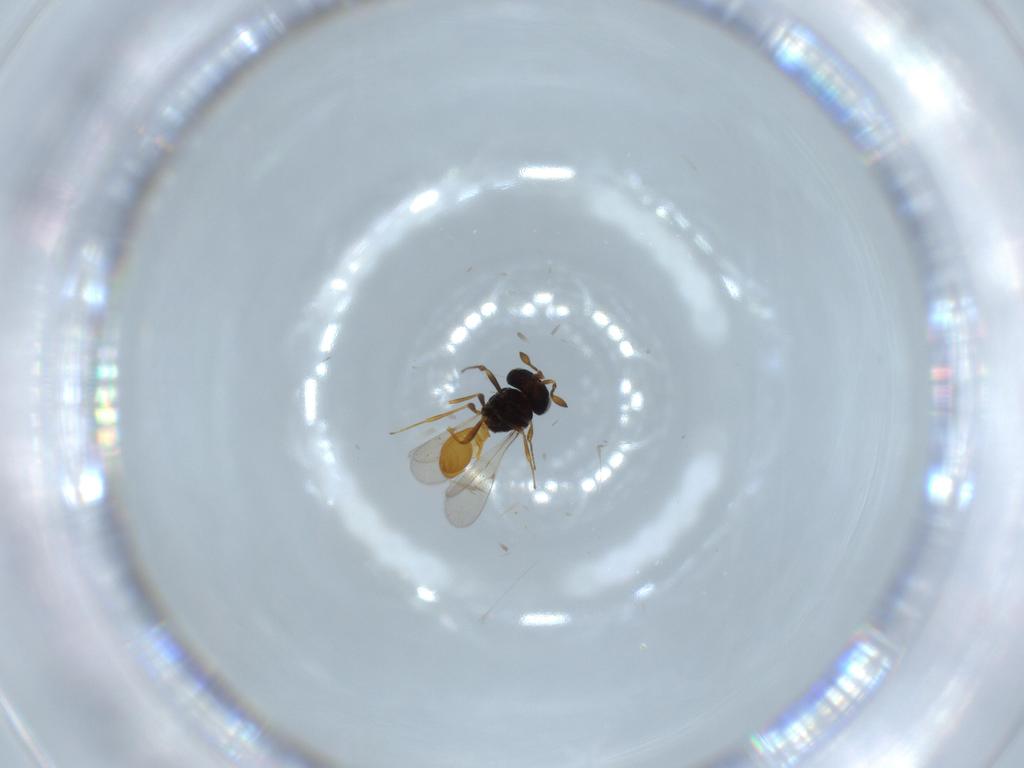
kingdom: Animalia
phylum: Arthropoda
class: Insecta
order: Hymenoptera
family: Scelionidae
